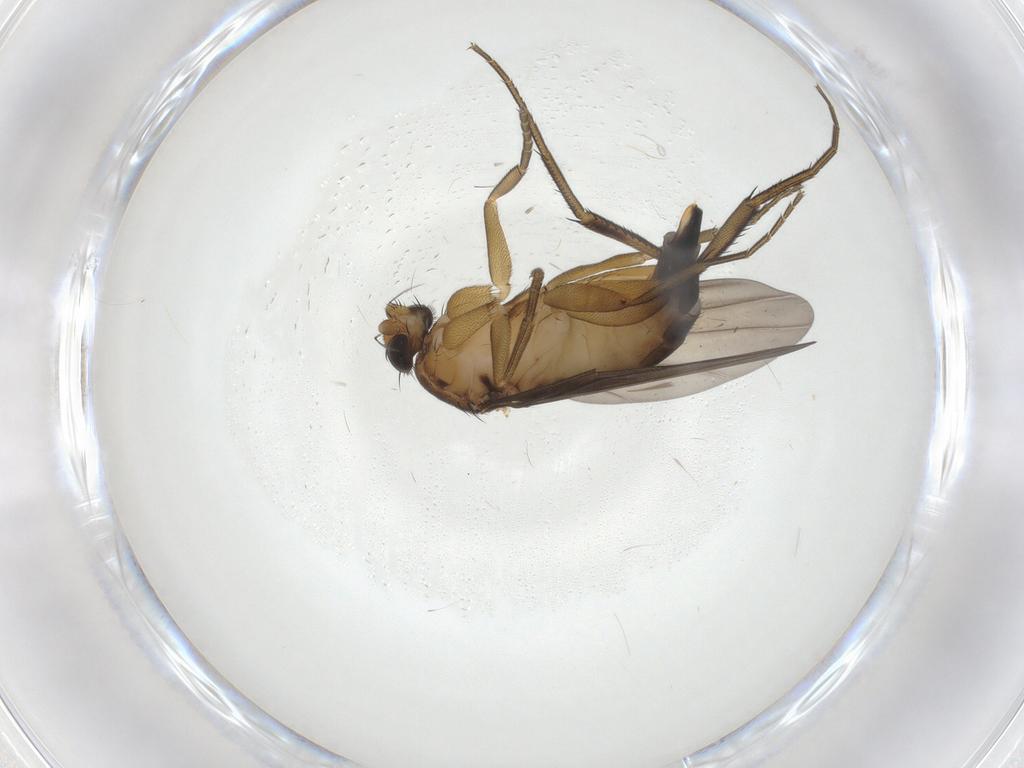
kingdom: Animalia
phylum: Arthropoda
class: Insecta
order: Diptera
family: Phoridae
